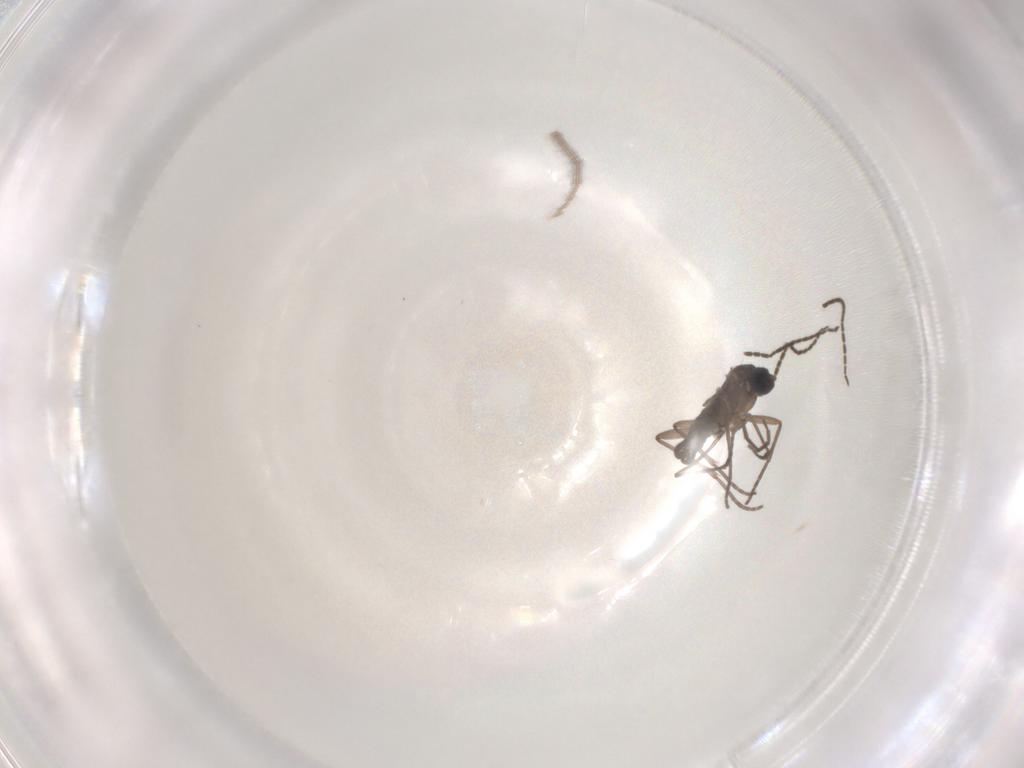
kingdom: Animalia
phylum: Arthropoda
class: Insecta
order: Diptera
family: Sciaridae
